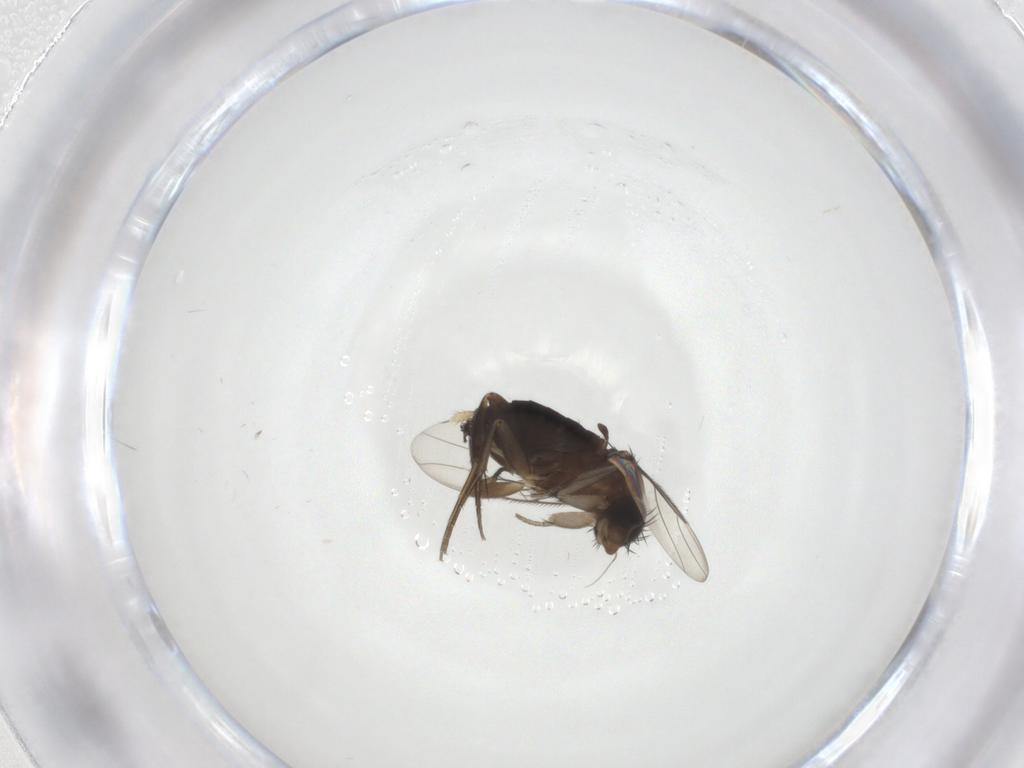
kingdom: Animalia
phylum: Arthropoda
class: Insecta
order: Diptera
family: Phoridae
